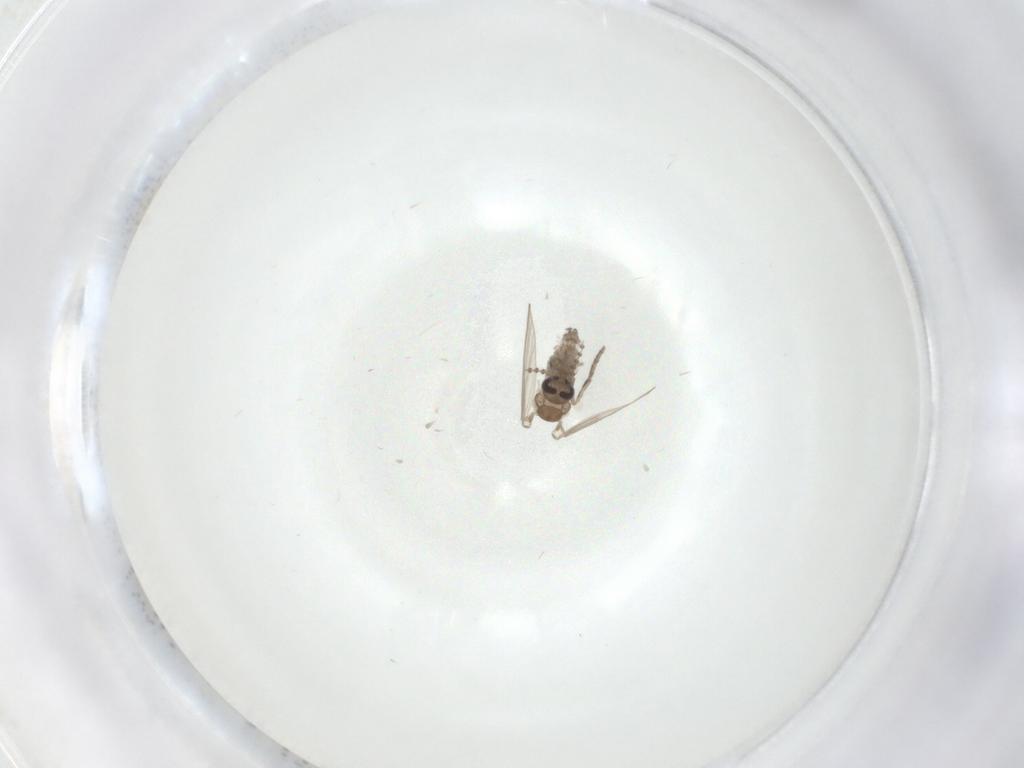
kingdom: Animalia
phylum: Arthropoda
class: Insecta
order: Diptera
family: Psychodidae
